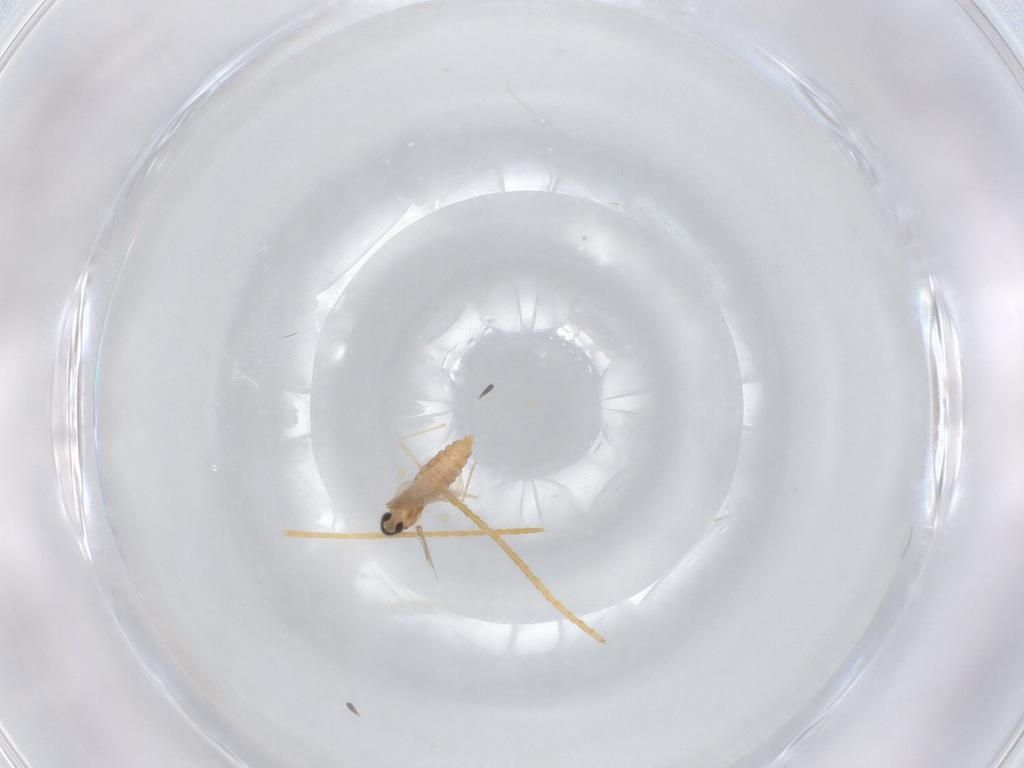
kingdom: Animalia
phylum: Arthropoda
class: Insecta
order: Diptera
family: Cecidomyiidae
